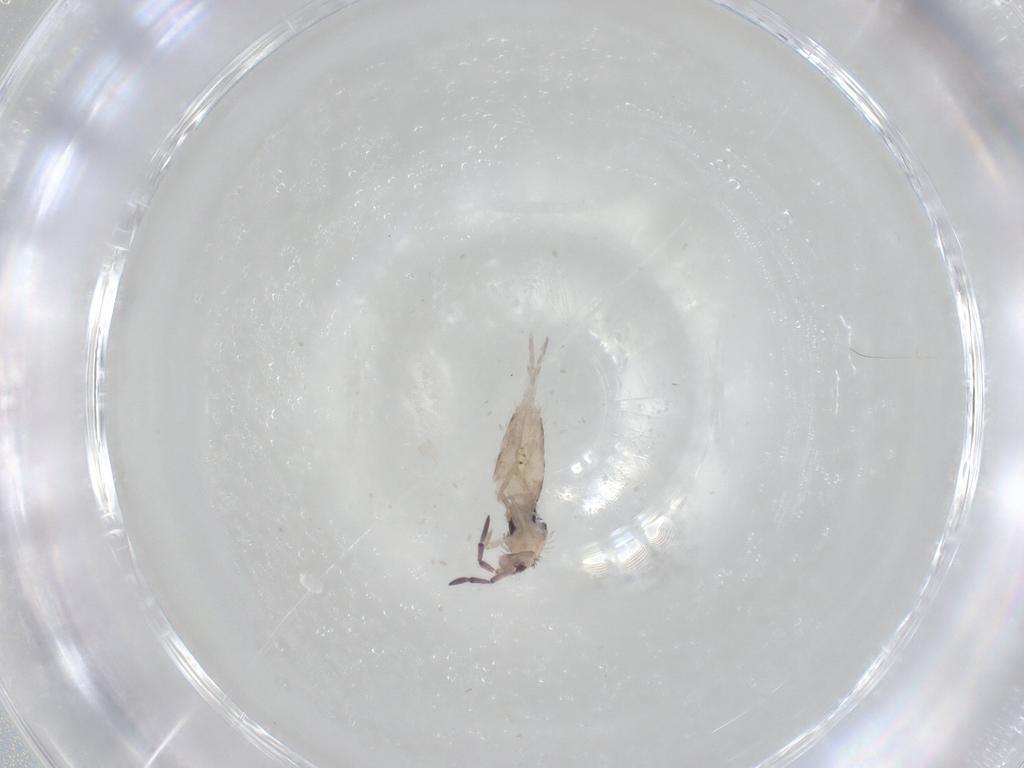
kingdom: Animalia
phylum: Arthropoda
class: Collembola
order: Entomobryomorpha
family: Entomobryidae
